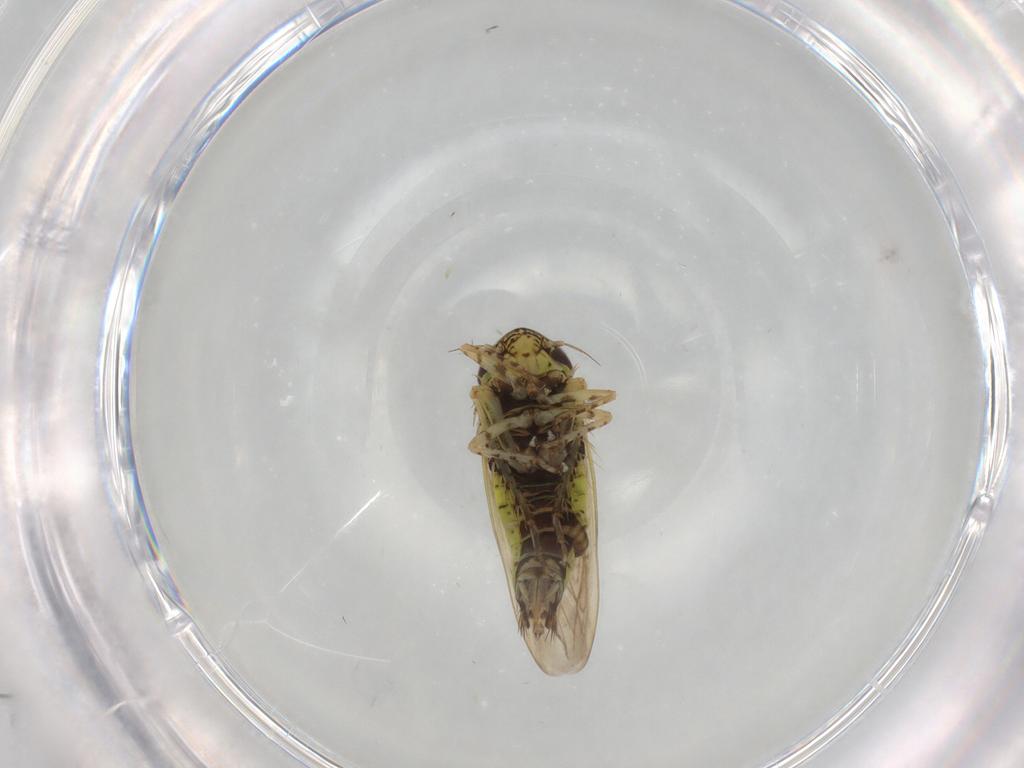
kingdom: Animalia
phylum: Arthropoda
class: Insecta
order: Hemiptera
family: Cicadellidae
